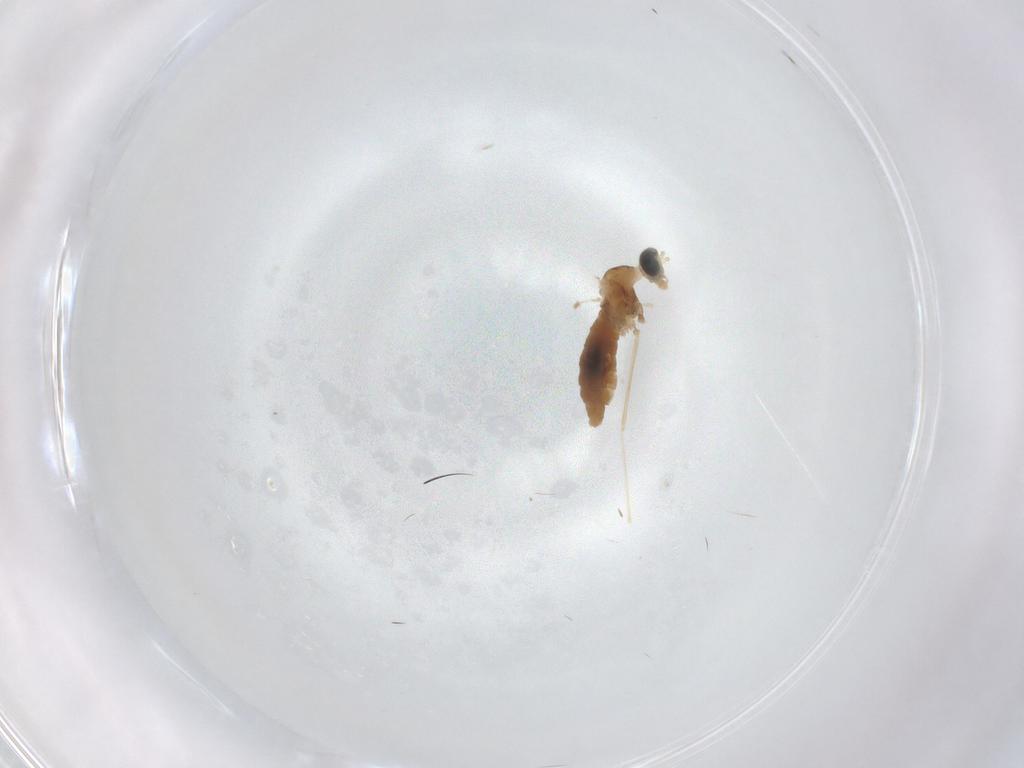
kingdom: Animalia
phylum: Arthropoda
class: Insecta
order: Diptera
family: Cecidomyiidae
